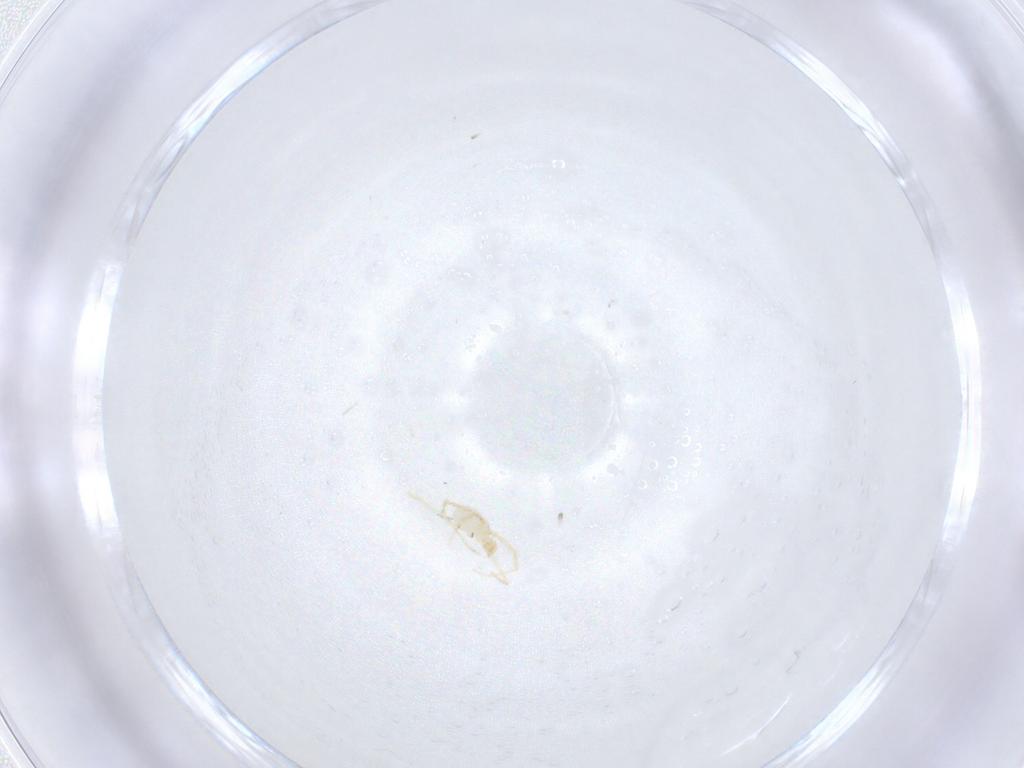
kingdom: Animalia
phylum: Arthropoda
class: Arachnida
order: Trombidiformes
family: Erythraeidae
